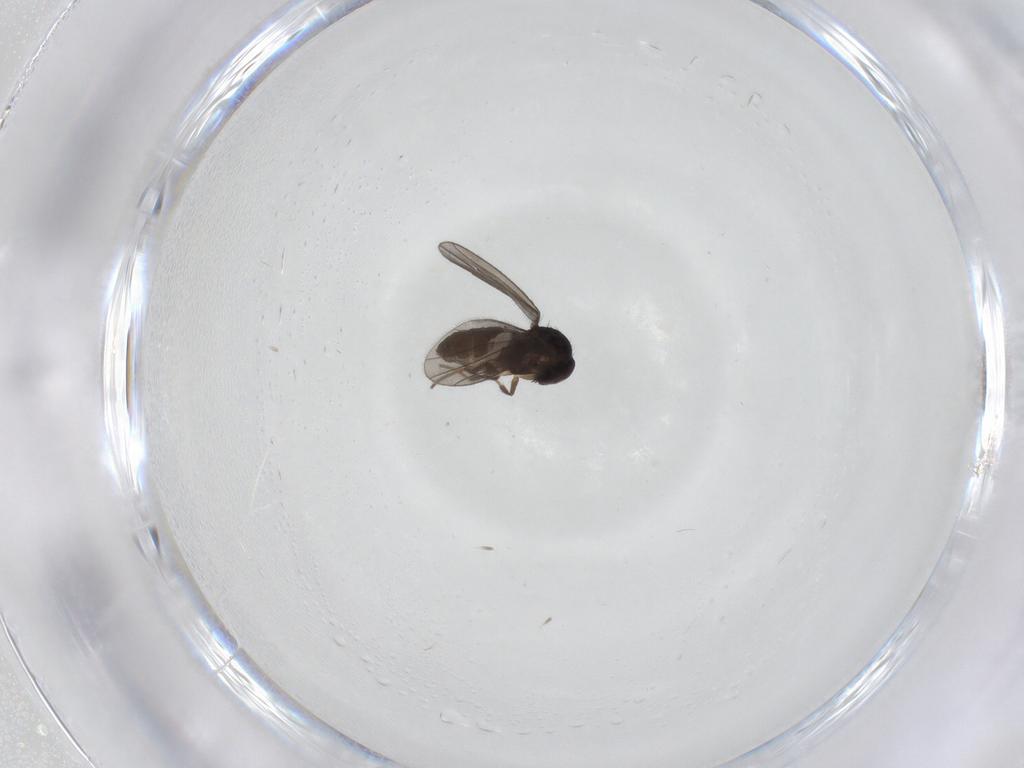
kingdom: Animalia
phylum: Arthropoda
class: Insecta
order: Diptera
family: Dolichopodidae
